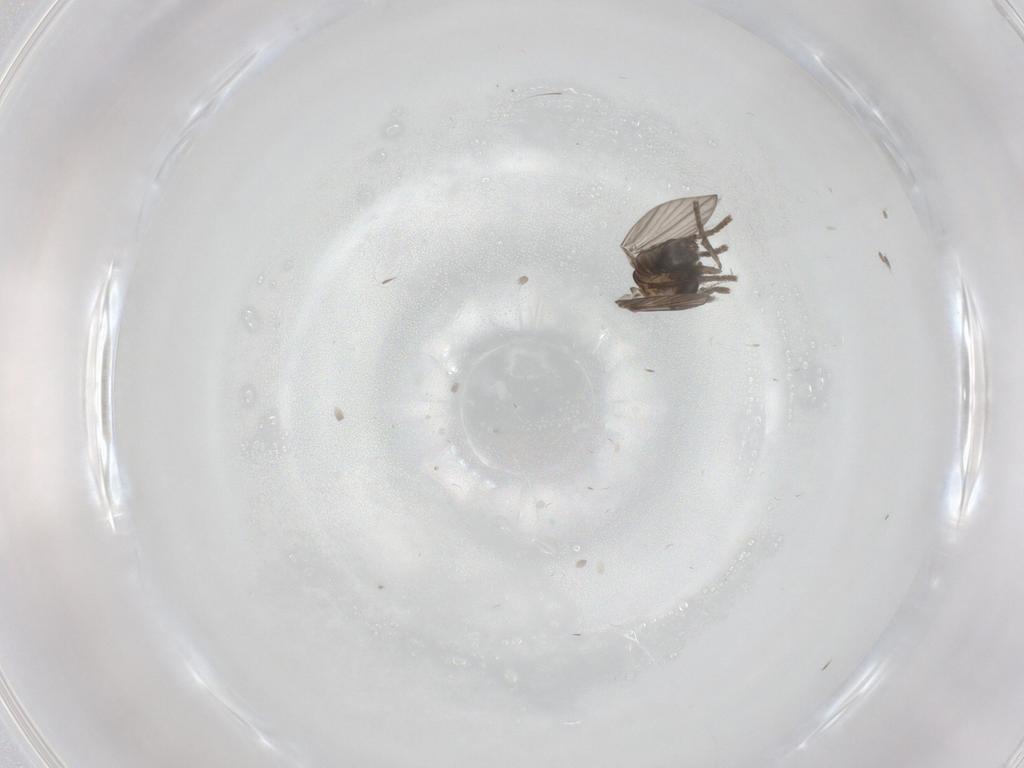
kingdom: Animalia
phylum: Arthropoda
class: Insecta
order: Diptera
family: Psychodidae
